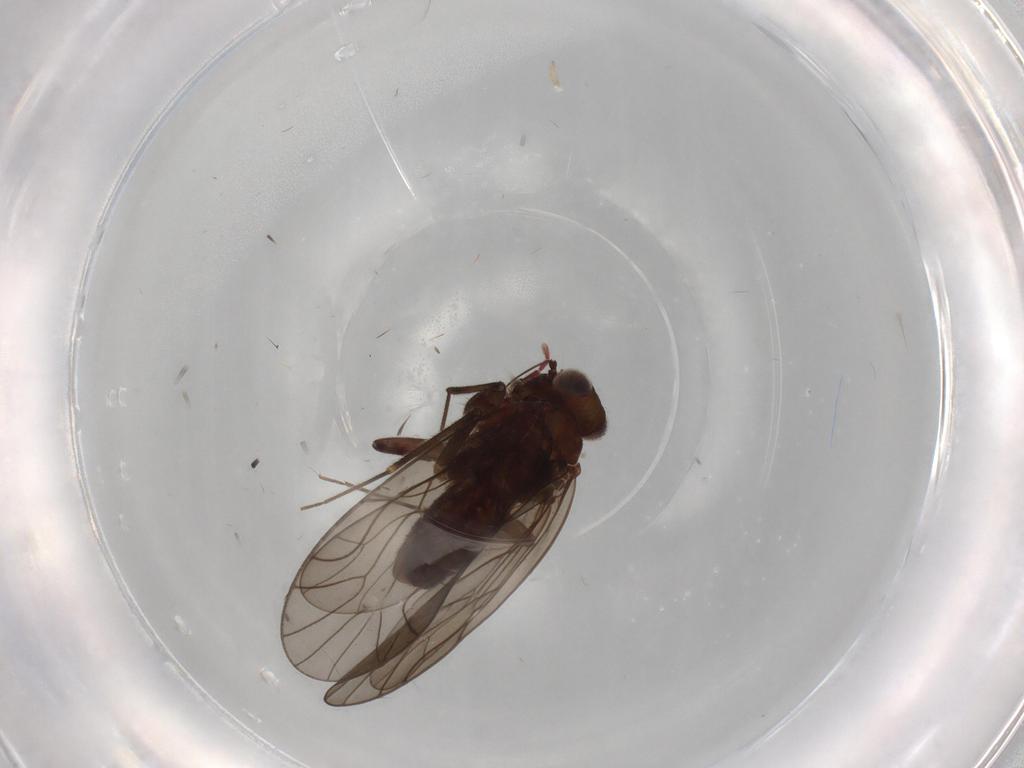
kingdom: Animalia
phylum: Arthropoda
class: Insecta
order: Psocodea
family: Philotarsidae
